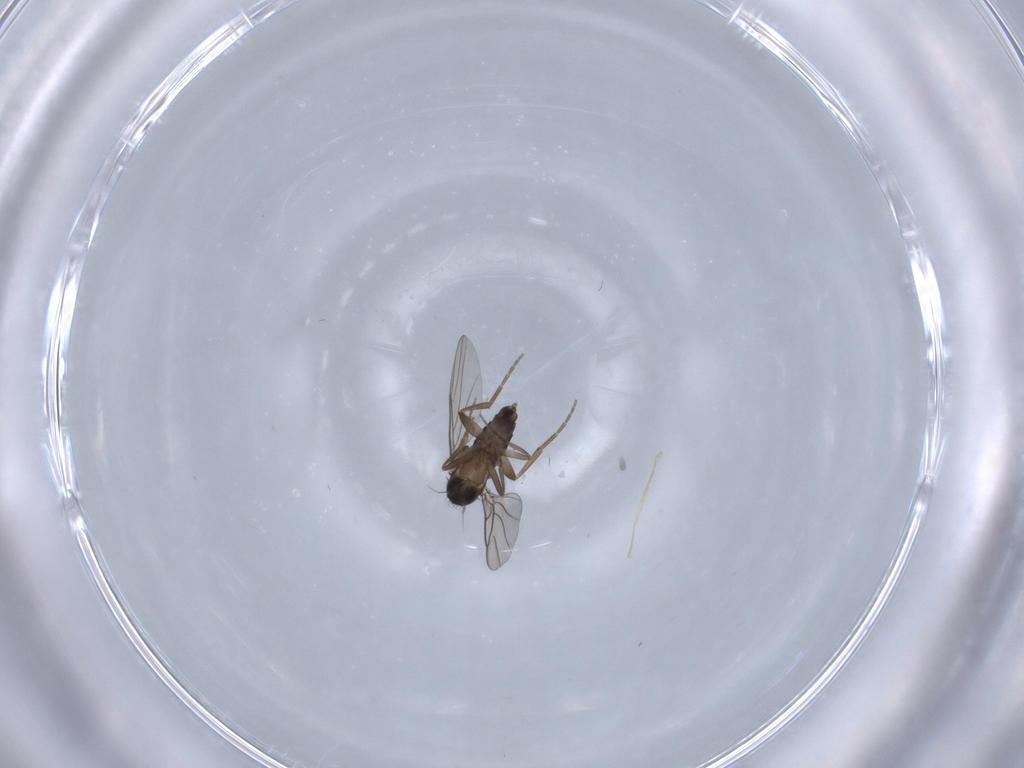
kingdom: Animalia
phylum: Arthropoda
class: Insecta
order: Diptera
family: Phoridae
